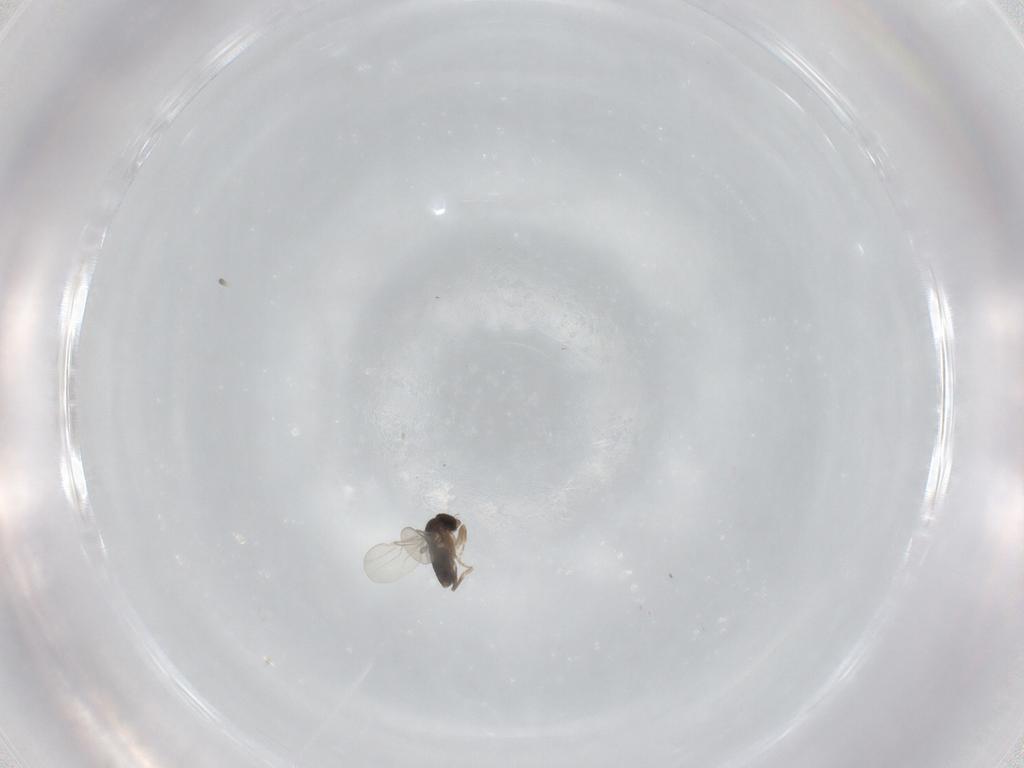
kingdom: Animalia
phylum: Arthropoda
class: Insecta
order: Diptera
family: Phoridae
